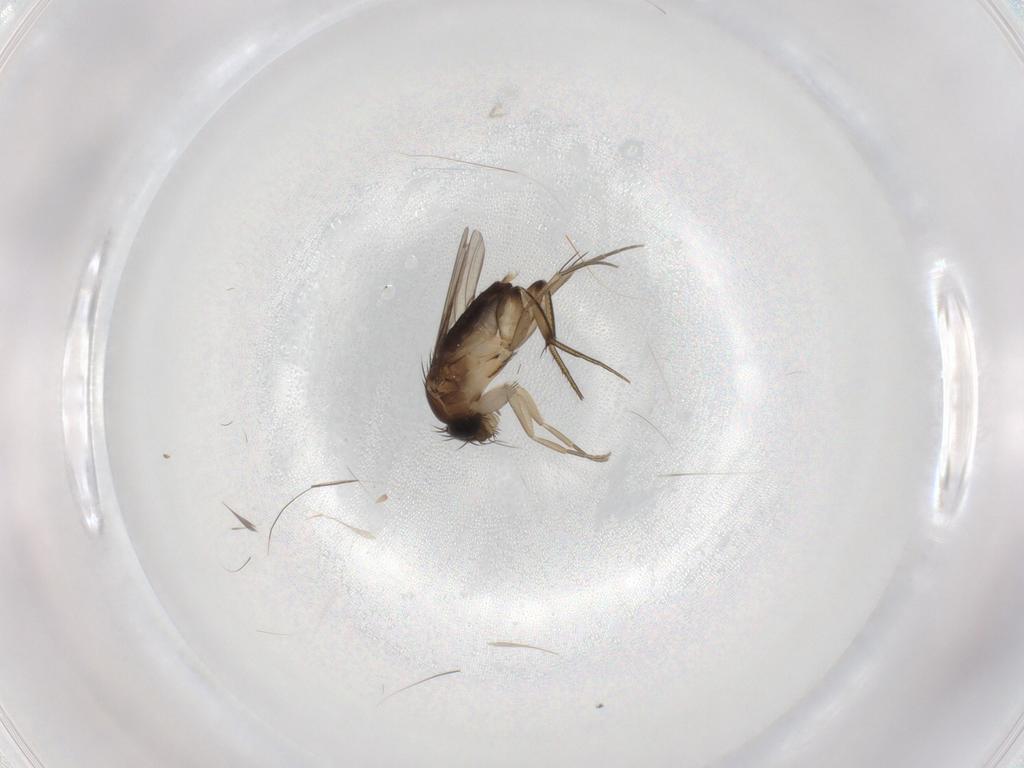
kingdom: Animalia
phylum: Arthropoda
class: Insecta
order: Diptera
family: Phoridae
